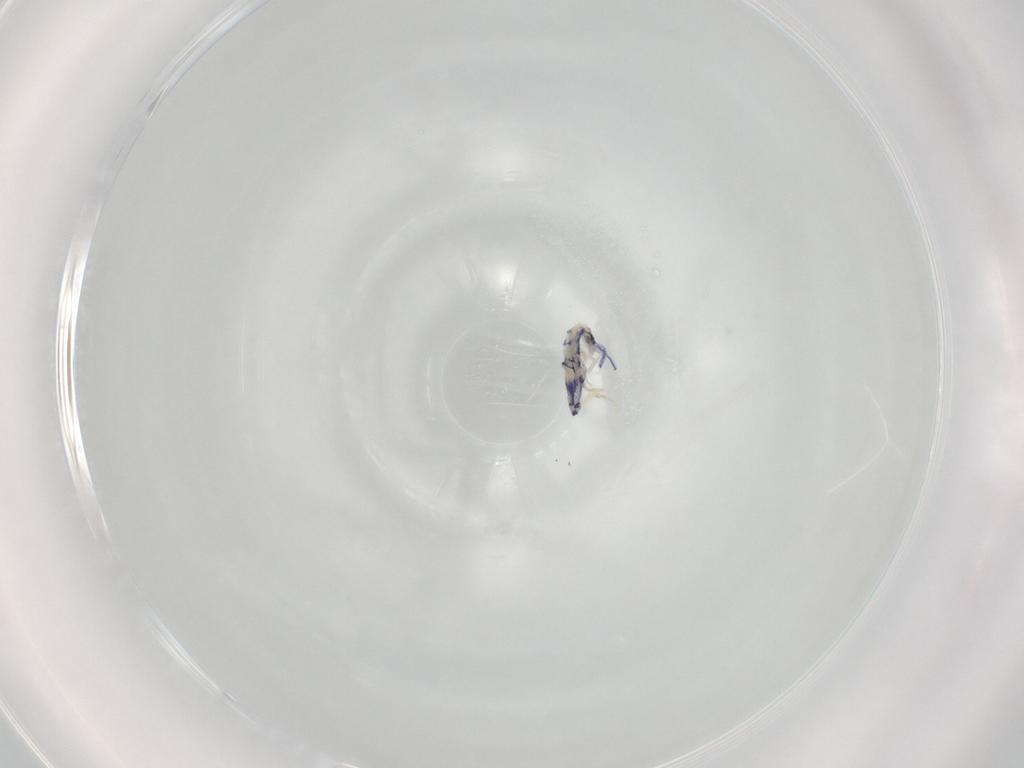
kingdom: Animalia
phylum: Arthropoda
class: Collembola
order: Entomobryomorpha
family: Entomobryidae
